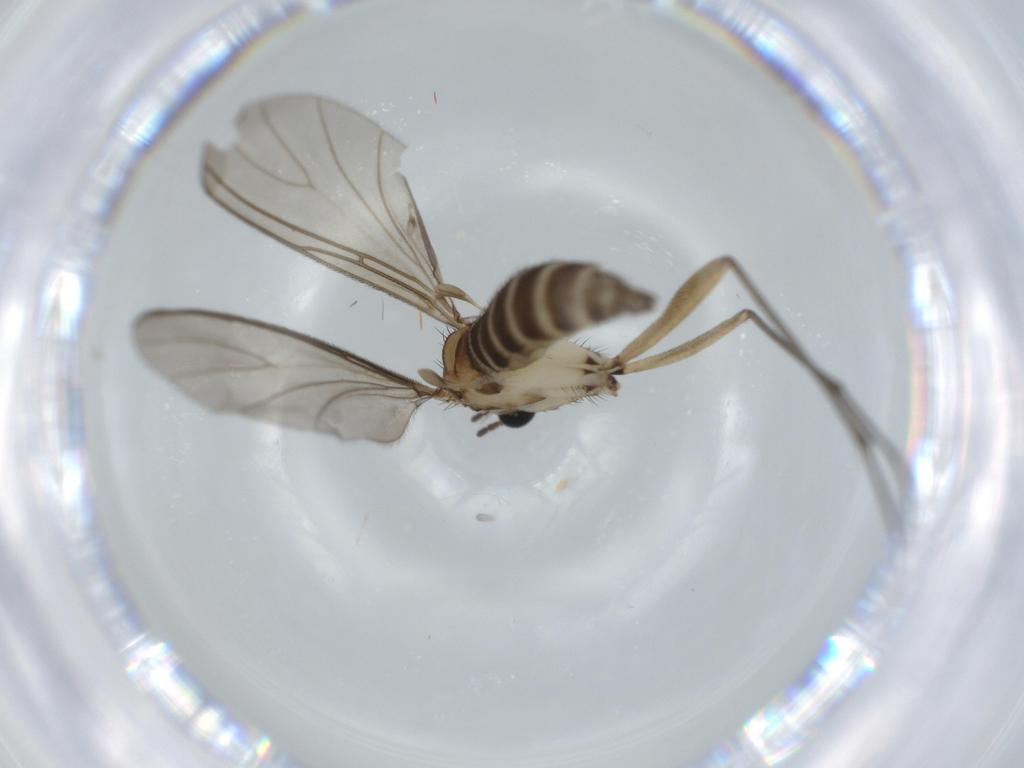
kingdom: Animalia
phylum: Arthropoda
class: Insecta
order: Diptera
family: Sciaridae
